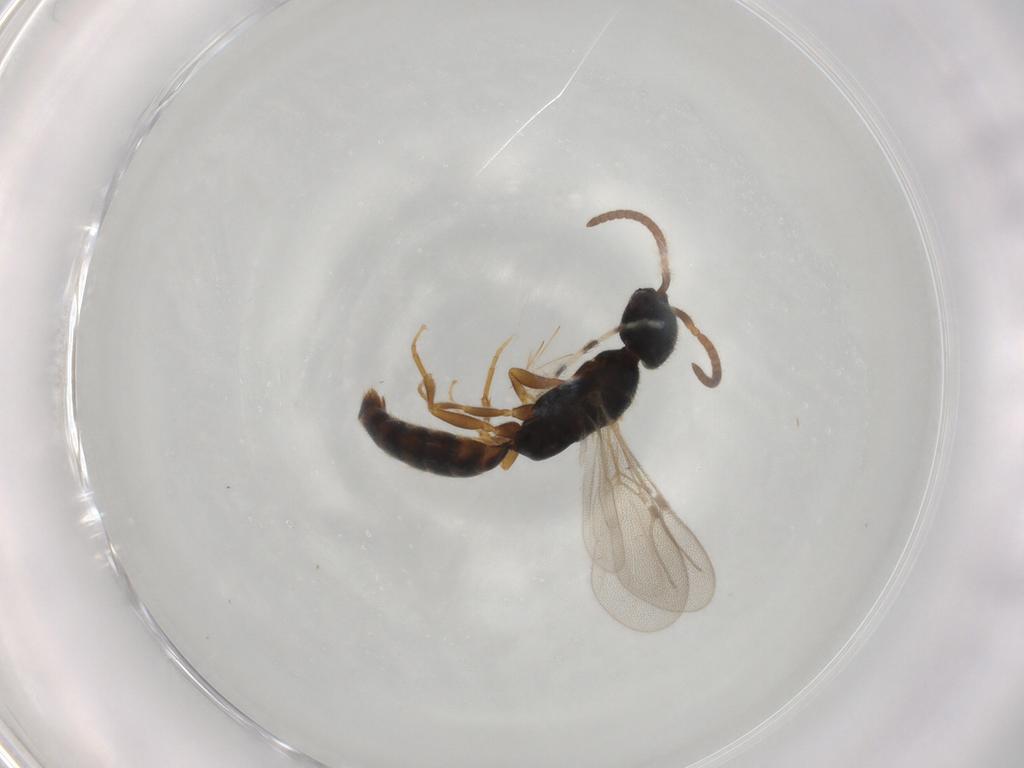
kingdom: Animalia
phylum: Arthropoda
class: Insecta
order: Hymenoptera
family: Bethylidae
